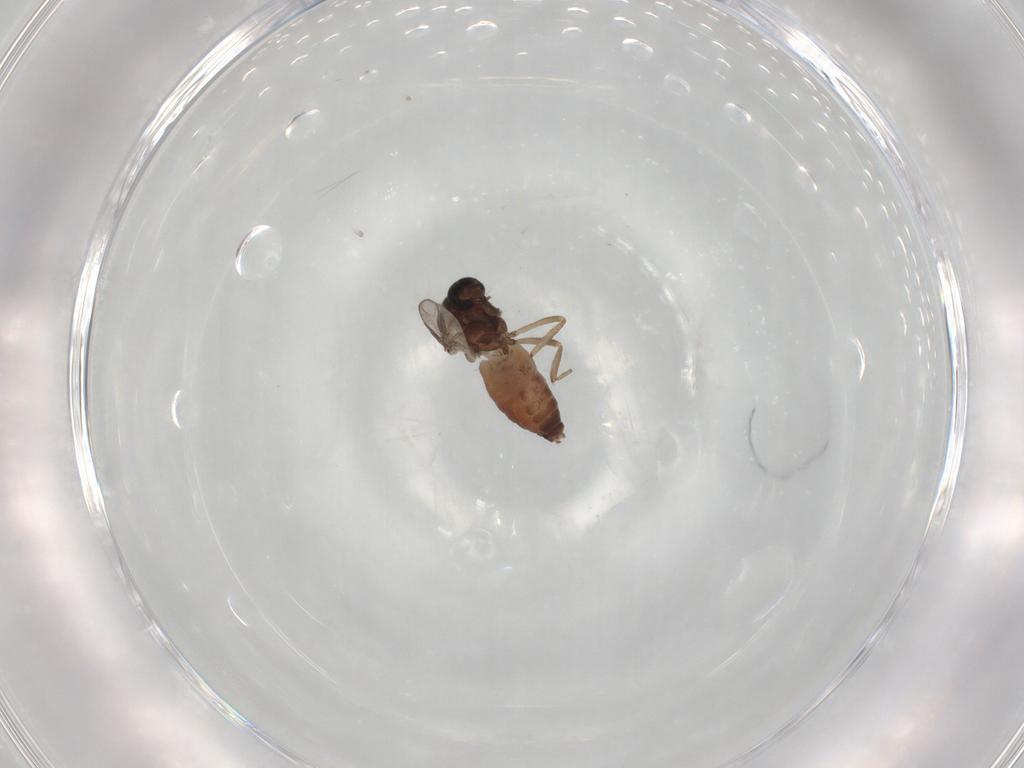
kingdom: Animalia
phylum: Arthropoda
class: Insecta
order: Diptera
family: Ceratopogonidae
